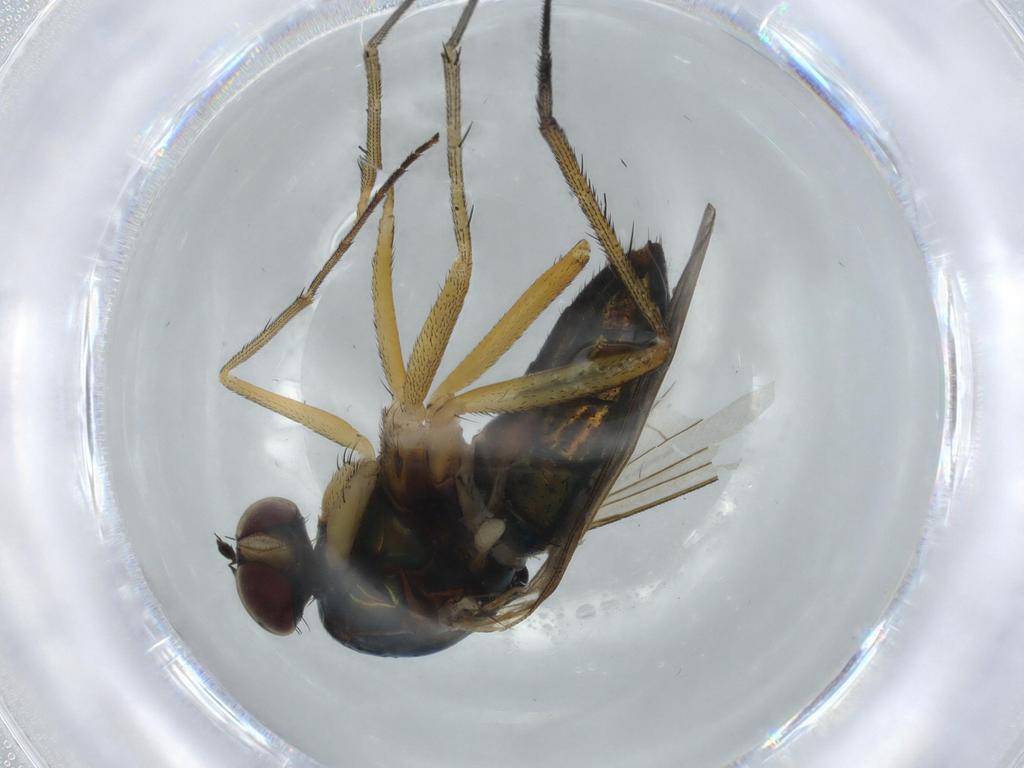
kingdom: Animalia
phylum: Arthropoda
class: Insecta
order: Diptera
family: Dolichopodidae
